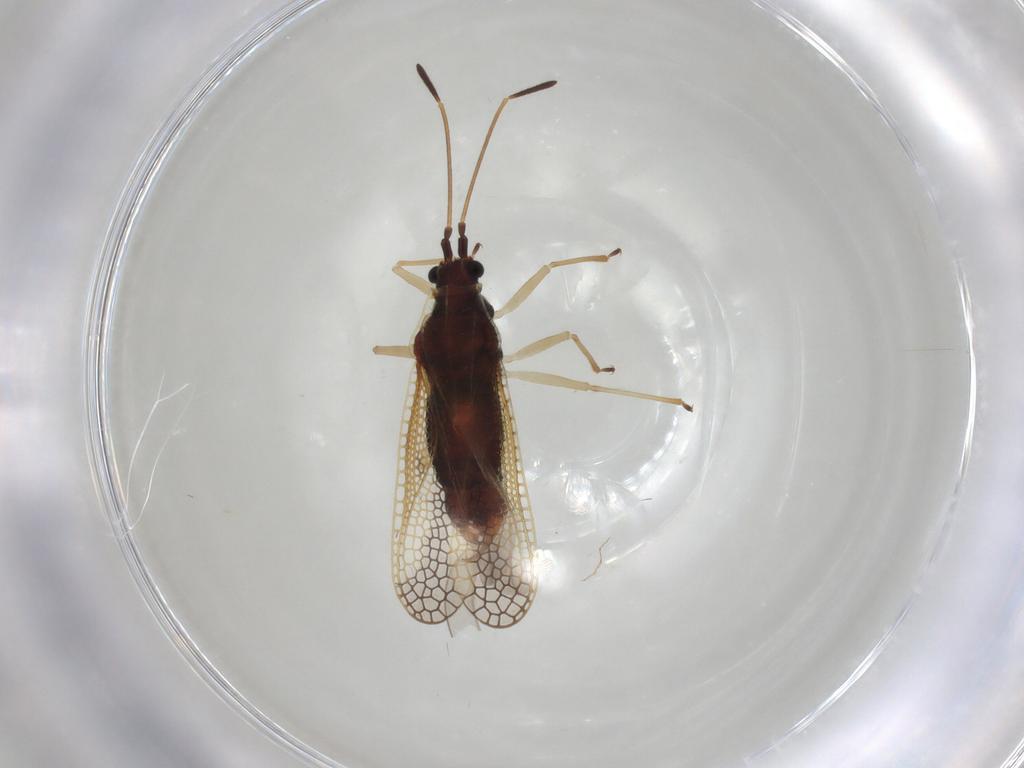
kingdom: Animalia
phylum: Arthropoda
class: Insecta
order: Hemiptera
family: Tingidae
